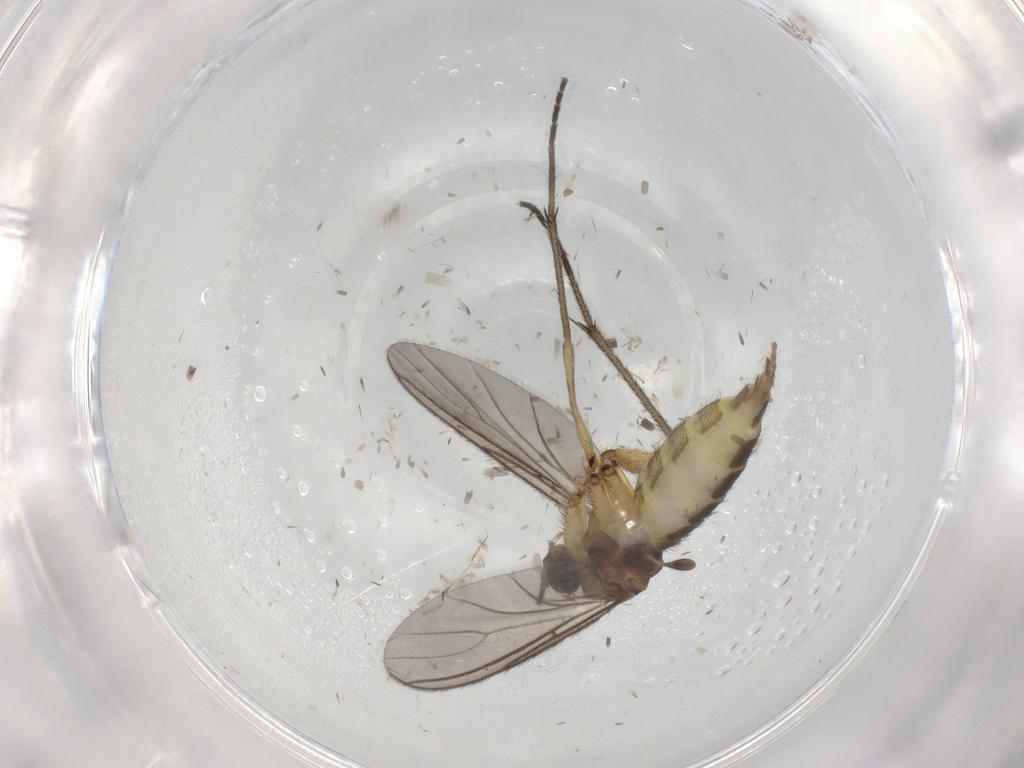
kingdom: Animalia
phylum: Arthropoda
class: Insecta
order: Diptera
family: Sciaridae
